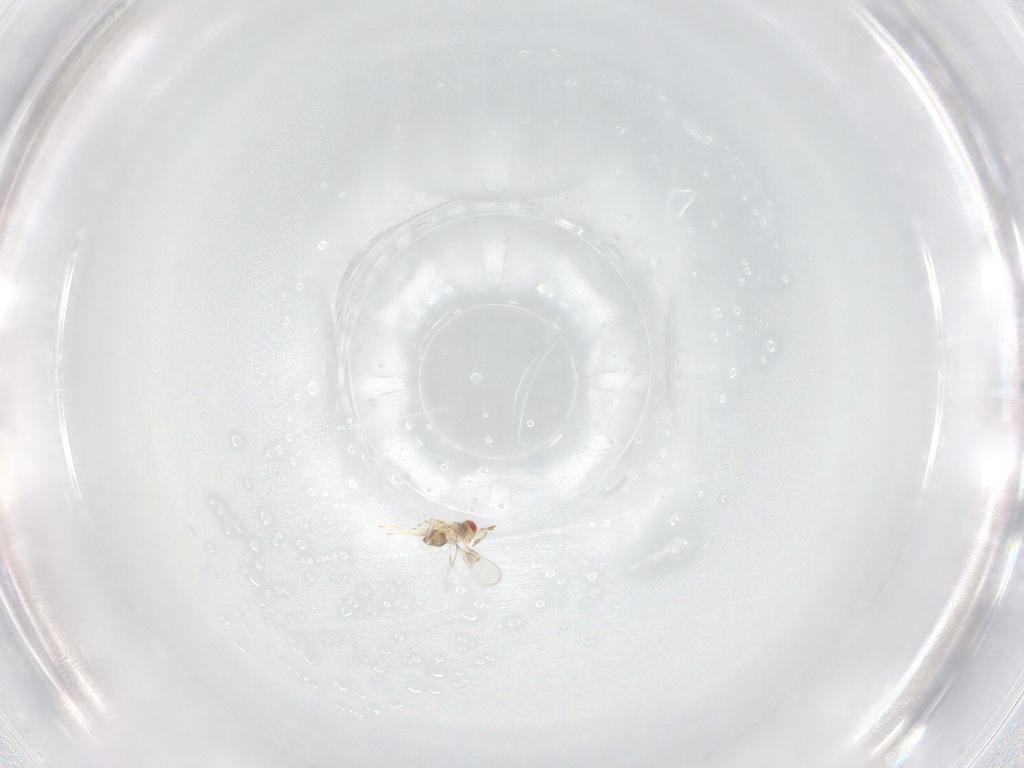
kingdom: Animalia
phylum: Arthropoda
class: Insecta
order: Hymenoptera
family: Trichogrammatidae
